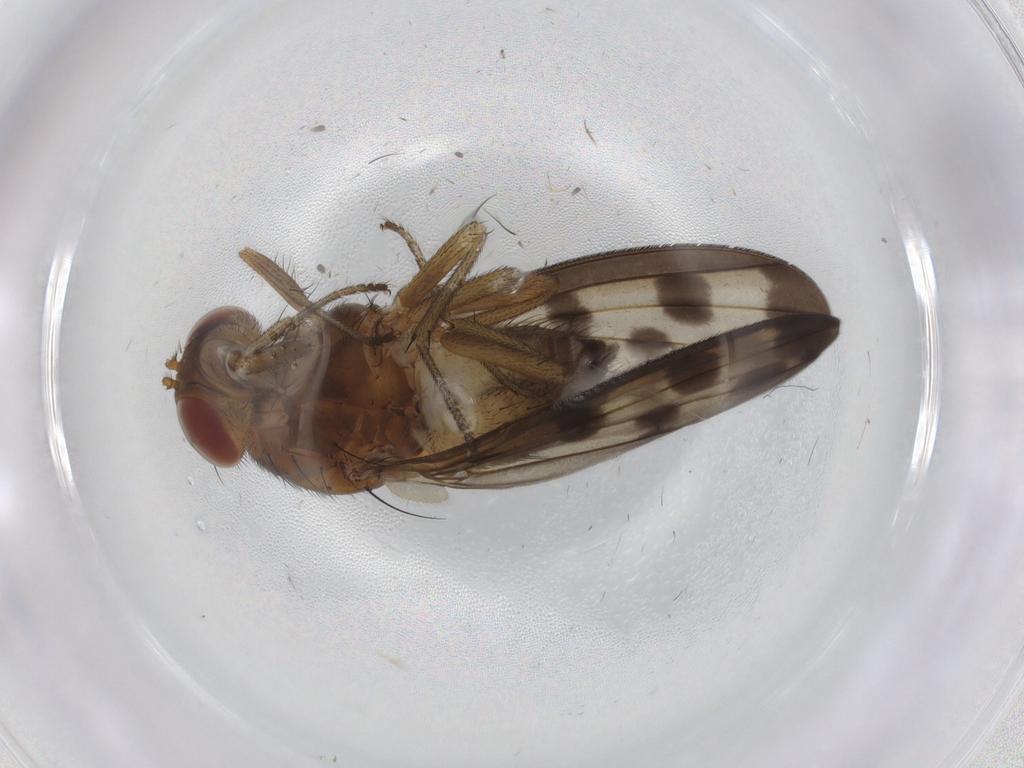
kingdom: Animalia
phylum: Arthropoda
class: Insecta
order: Diptera
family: Psychodidae
